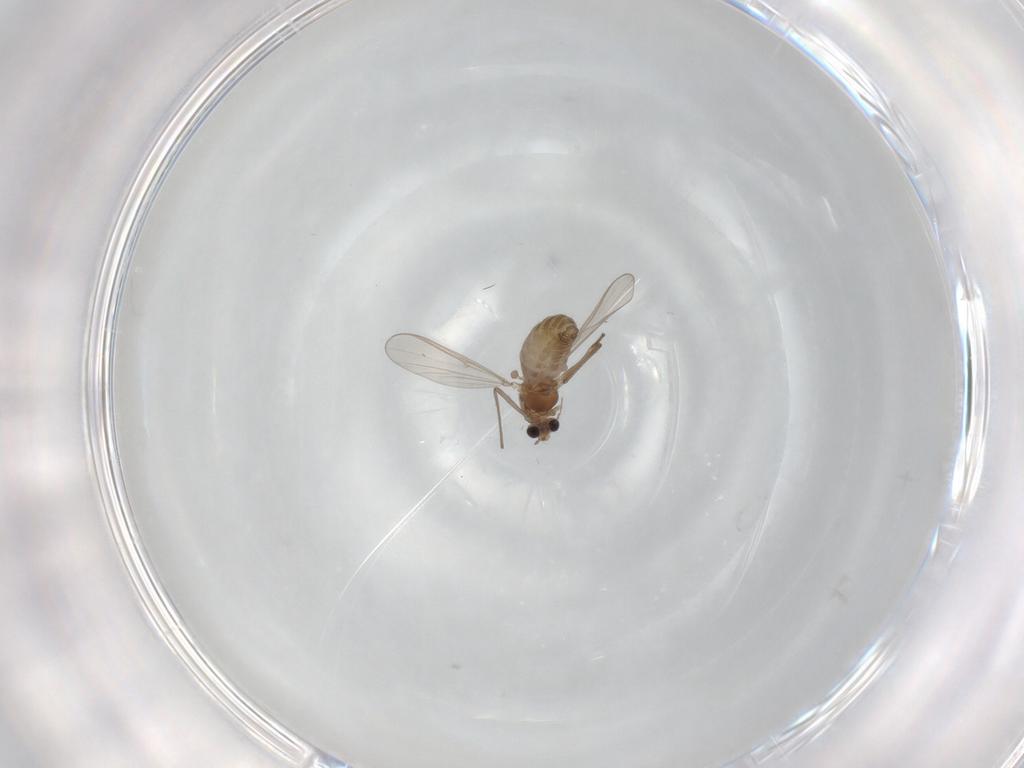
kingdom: Animalia
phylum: Arthropoda
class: Insecta
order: Diptera
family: Chironomidae
